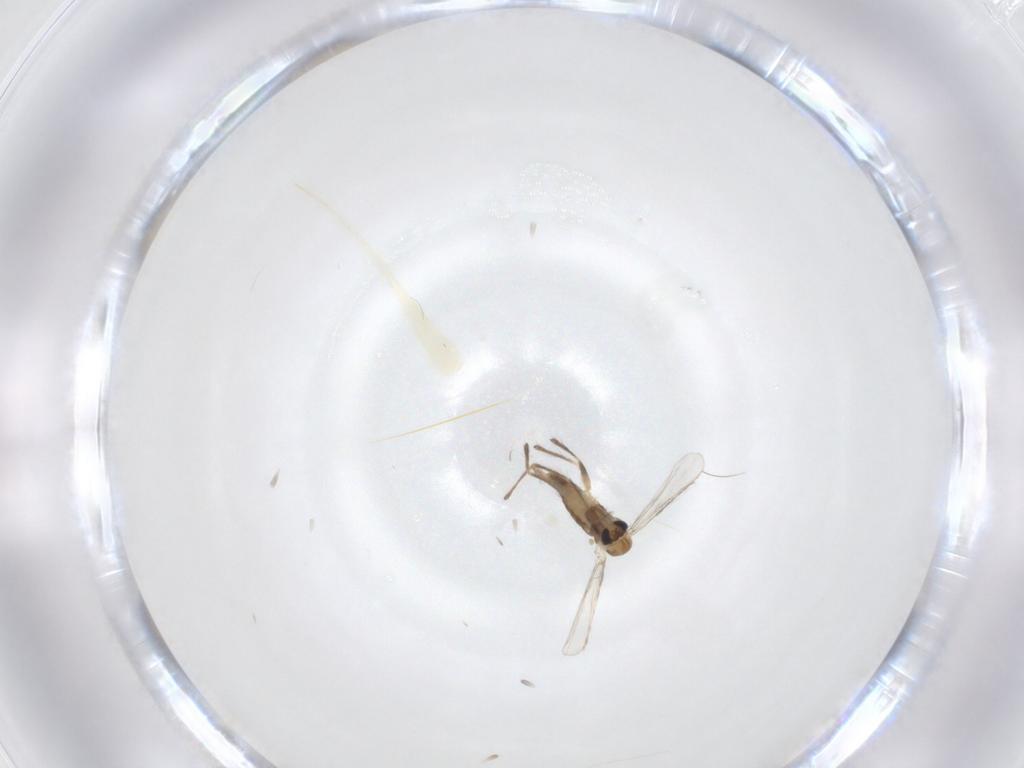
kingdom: Animalia
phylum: Arthropoda
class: Insecta
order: Diptera
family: Chironomidae
